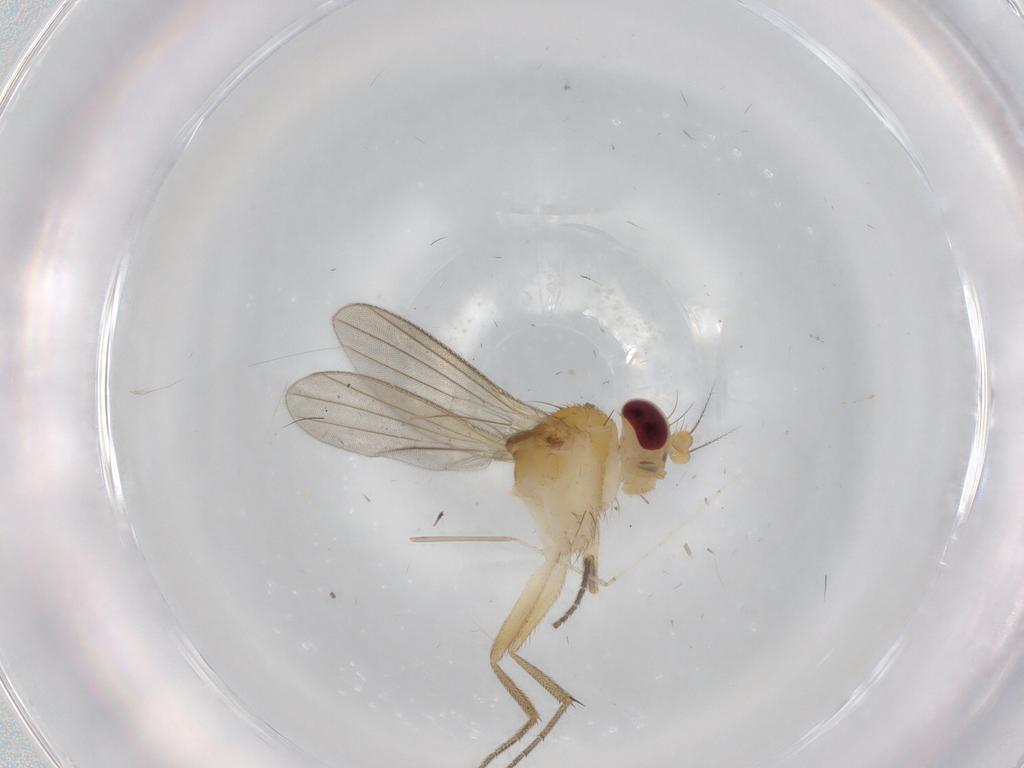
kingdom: Animalia
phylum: Arthropoda
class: Insecta
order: Diptera
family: Clusiidae
